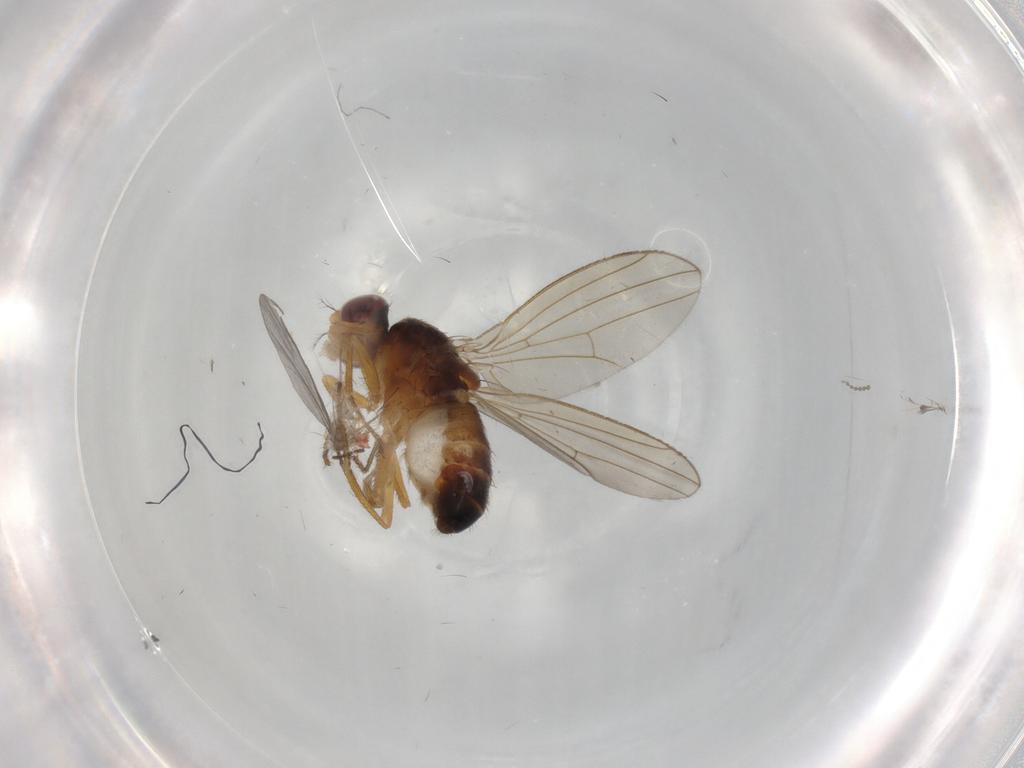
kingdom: Animalia
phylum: Arthropoda
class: Insecta
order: Diptera
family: Drosophilidae
